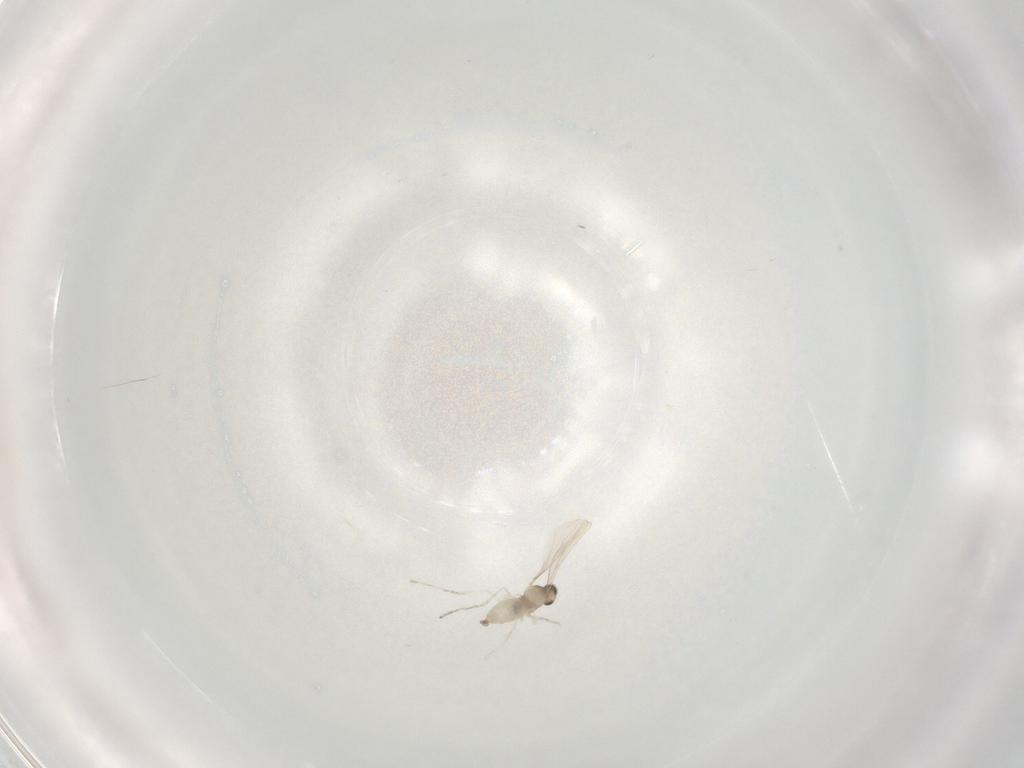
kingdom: Animalia
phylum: Arthropoda
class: Insecta
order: Diptera
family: Cecidomyiidae
